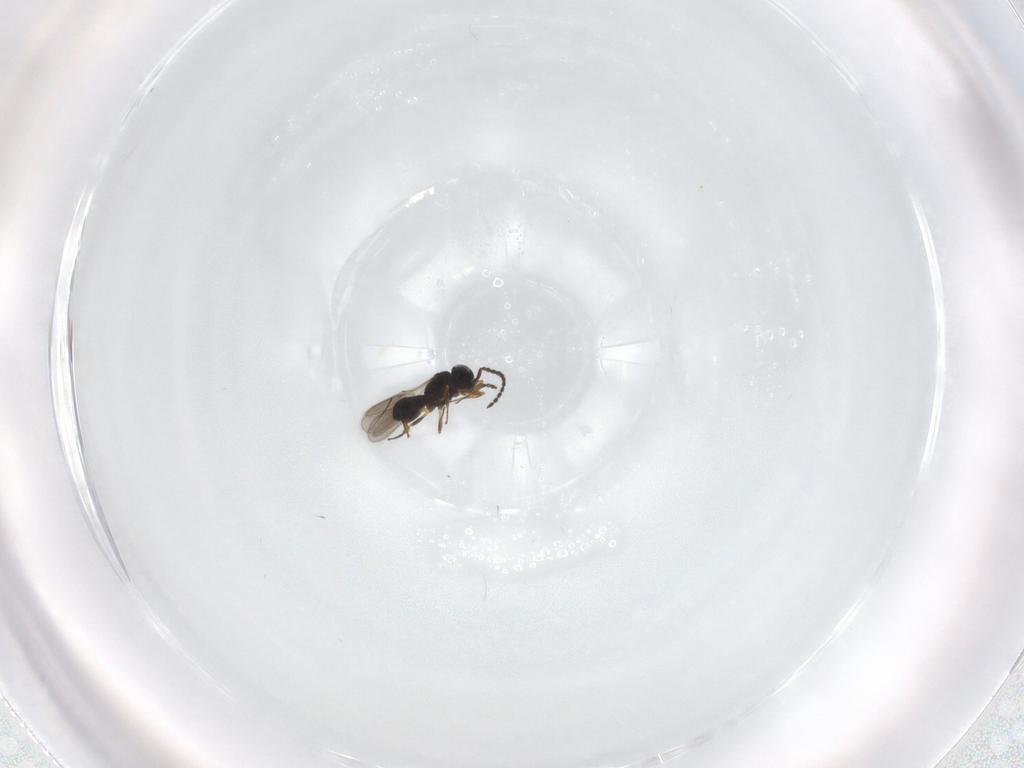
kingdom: Animalia
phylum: Arthropoda
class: Insecta
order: Hymenoptera
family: Scelionidae
